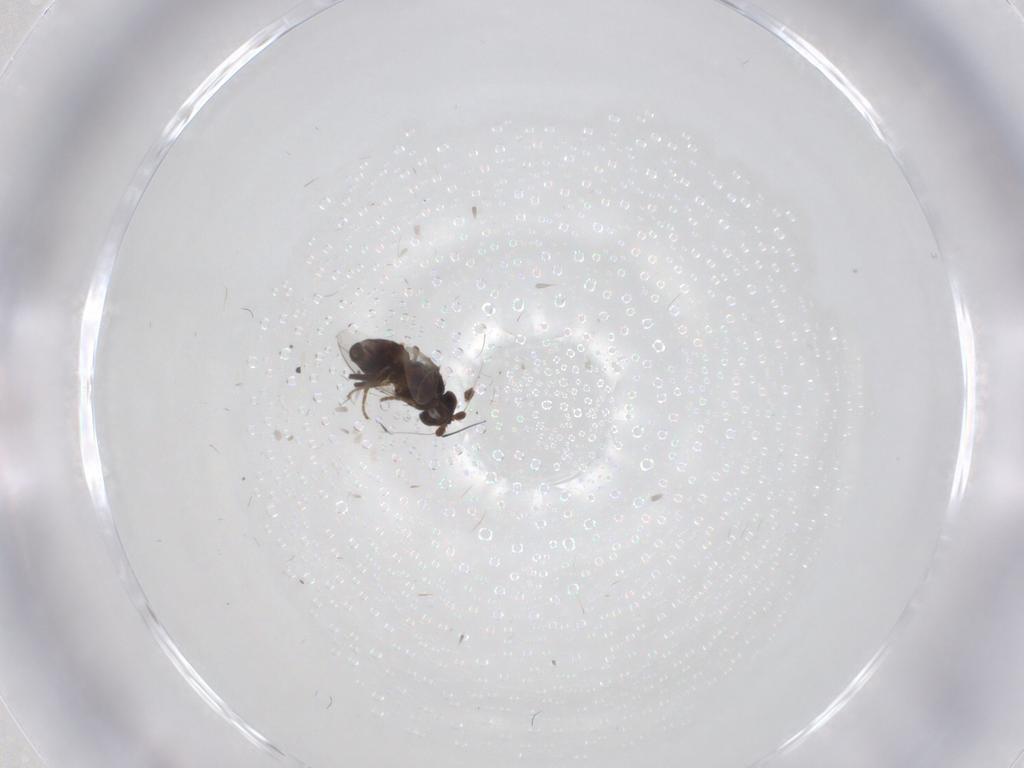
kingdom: Animalia
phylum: Arthropoda
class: Insecta
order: Diptera
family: Sphaeroceridae
